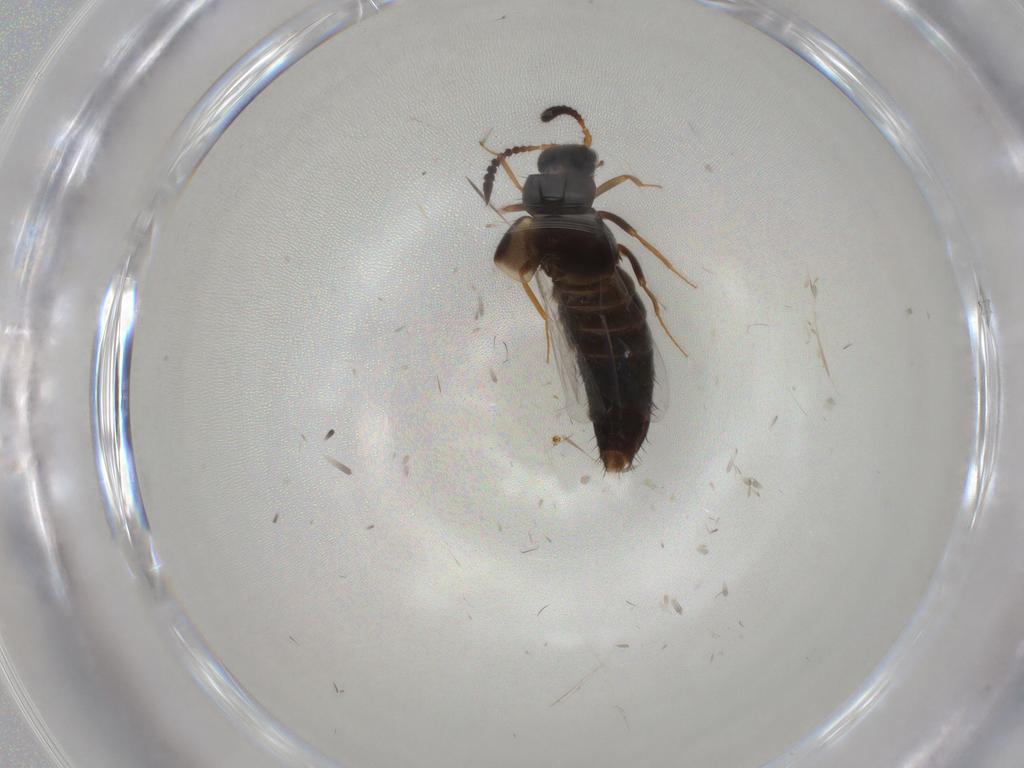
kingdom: Animalia
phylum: Arthropoda
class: Insecta
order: Coleoptera
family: Staphylinidae
